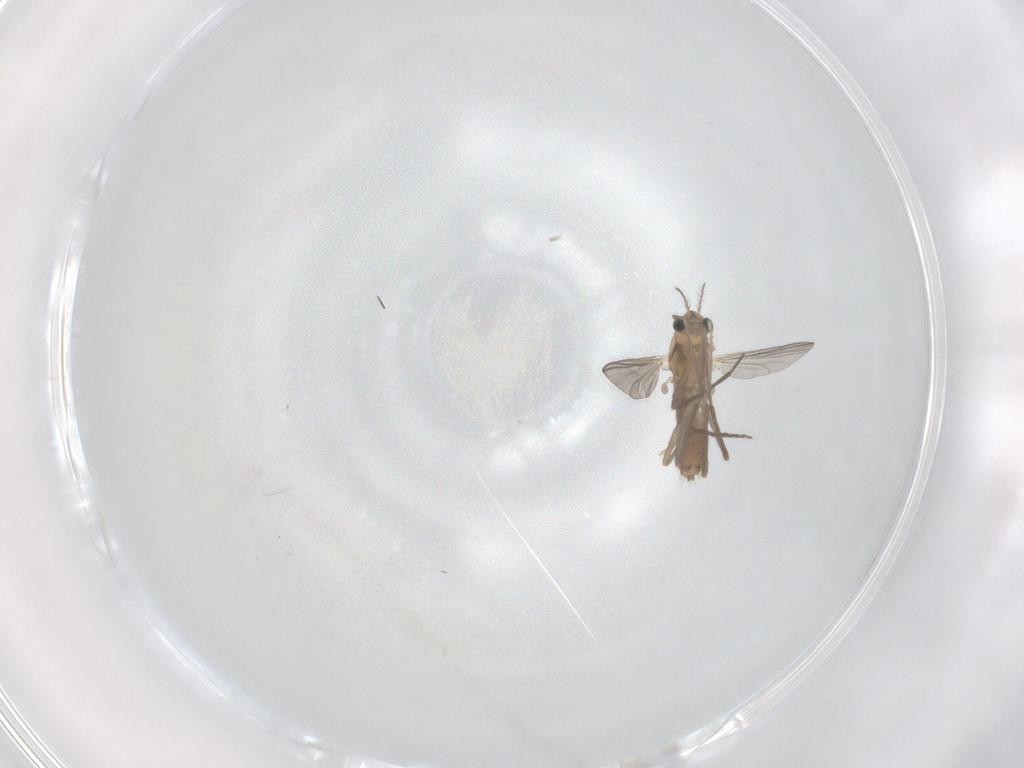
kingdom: Animalia
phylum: Arthropoda
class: Insecta
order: Diptera
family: Chironomidae
